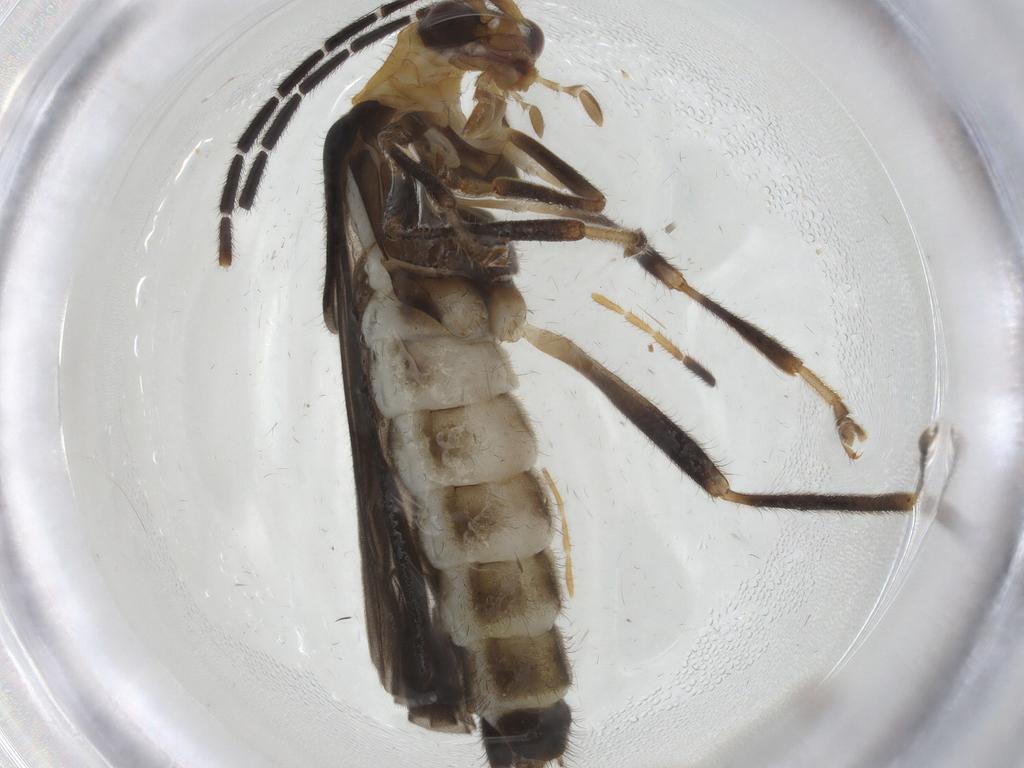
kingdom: Animalia
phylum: Arthropoda
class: Insecta
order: Coleoptera
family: Cantharidae
